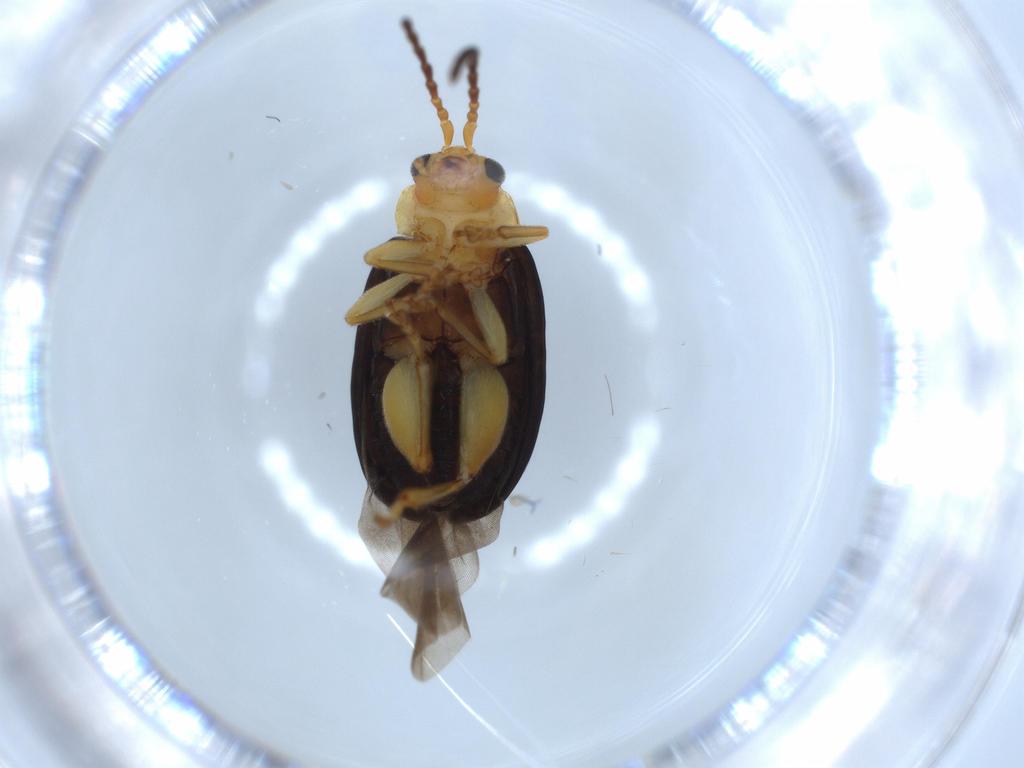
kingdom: Animalia
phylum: Arthropoda
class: Insecta
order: Coleoptera
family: Chrysomelidae
